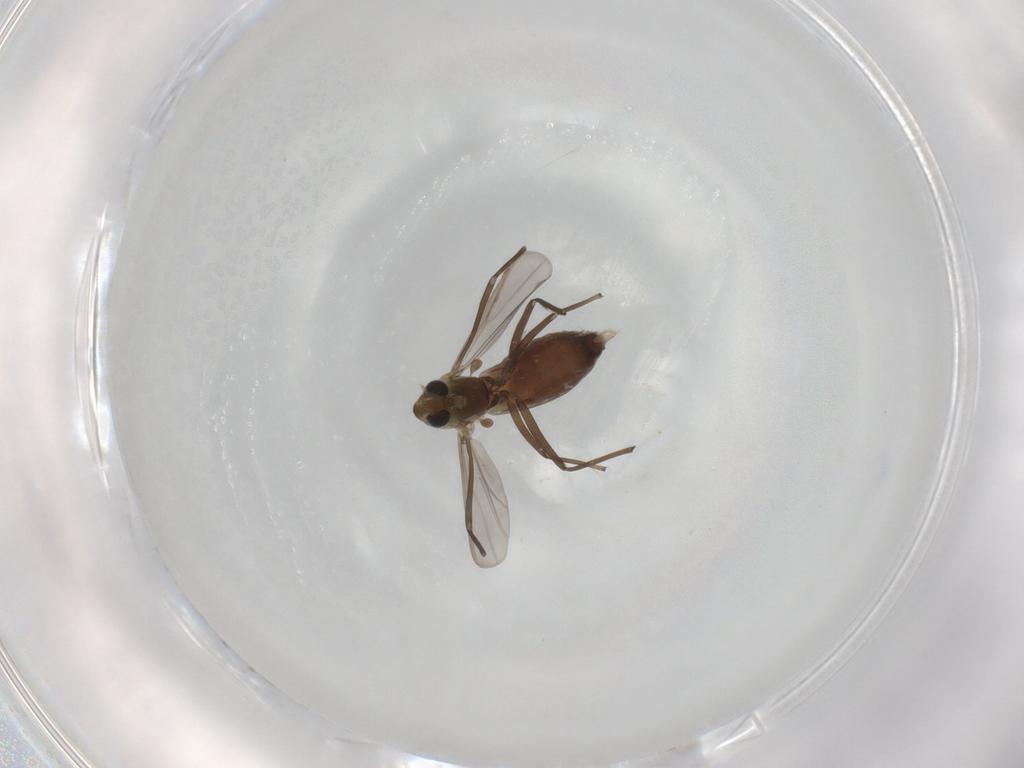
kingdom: Animalia
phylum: Arthropoda
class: Insecta
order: Diptera
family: Chironomidae
